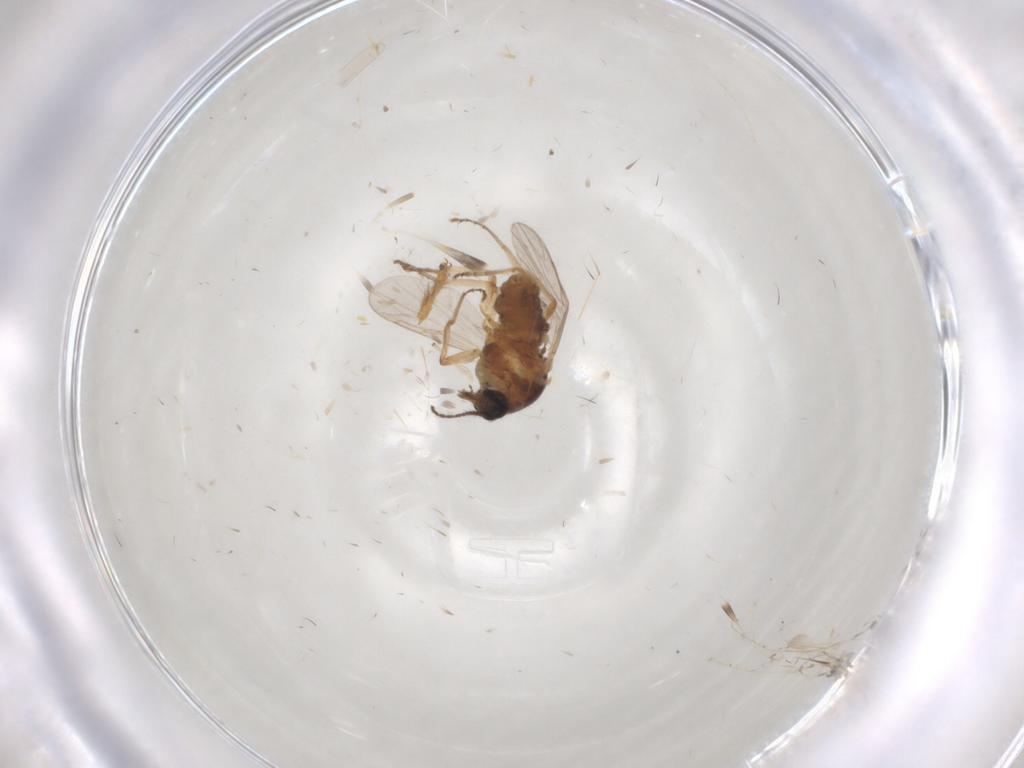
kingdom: Animalia
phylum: Arthropoda
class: Insecta
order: Diptera
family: Ceratopogonidae
